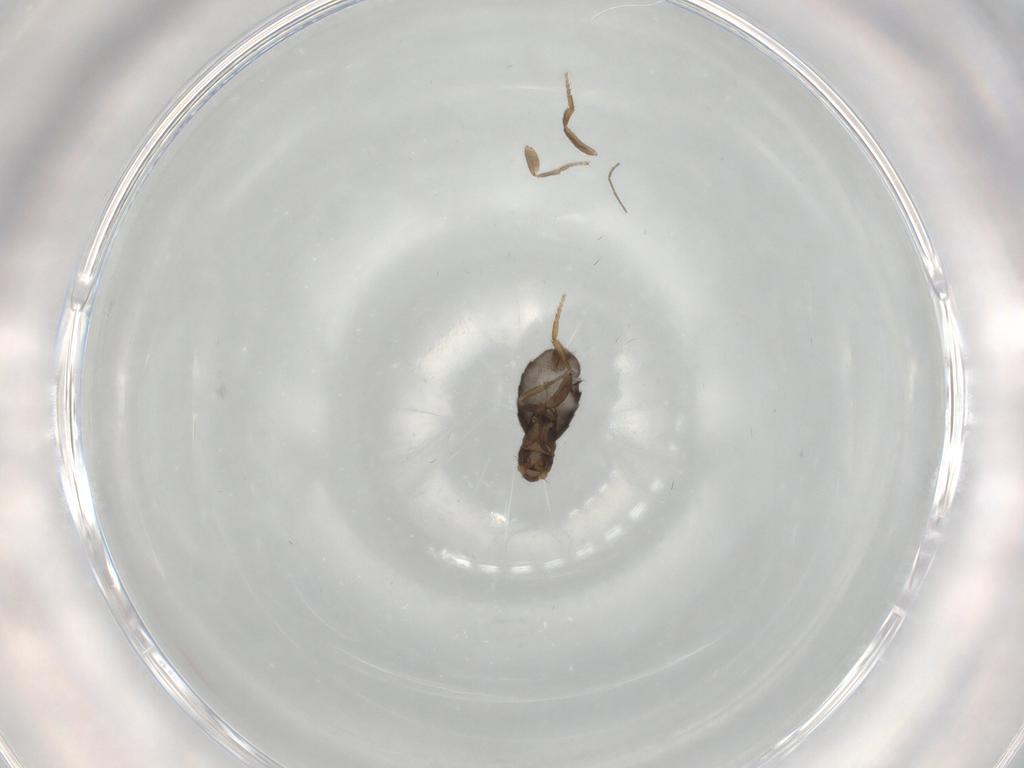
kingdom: Animalia
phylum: Arthropoda
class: Insecta
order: Diptera
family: Phoridae
